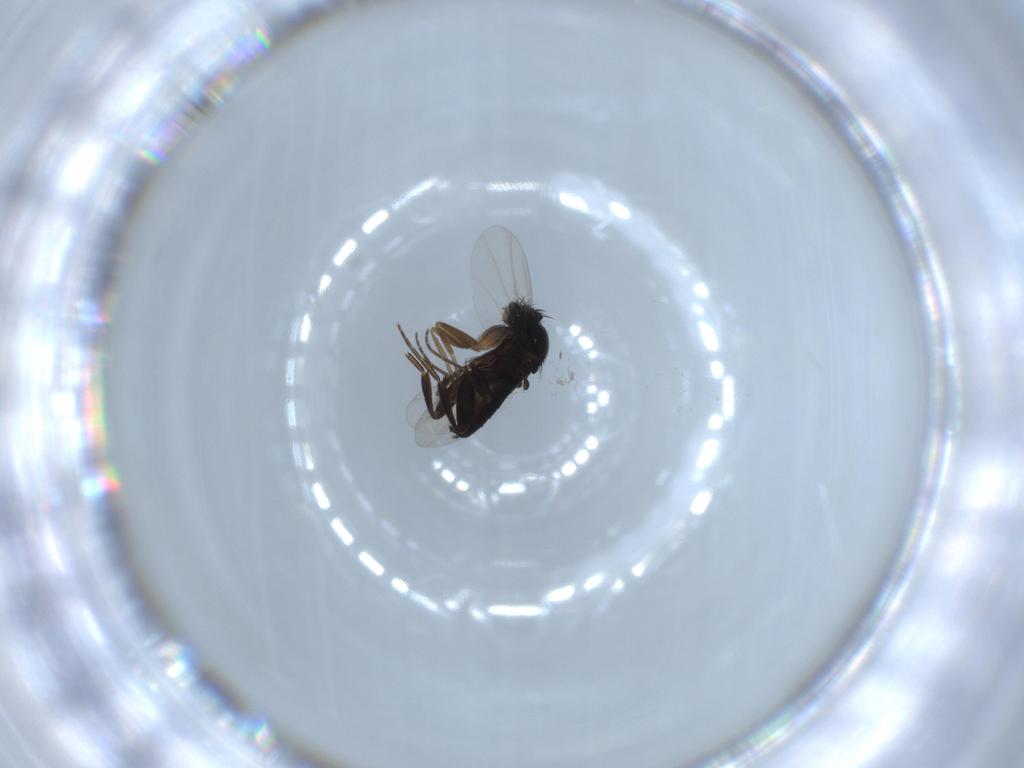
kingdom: Animalia
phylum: Arthropoda
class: Insecta
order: Diptera
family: Phoridae
